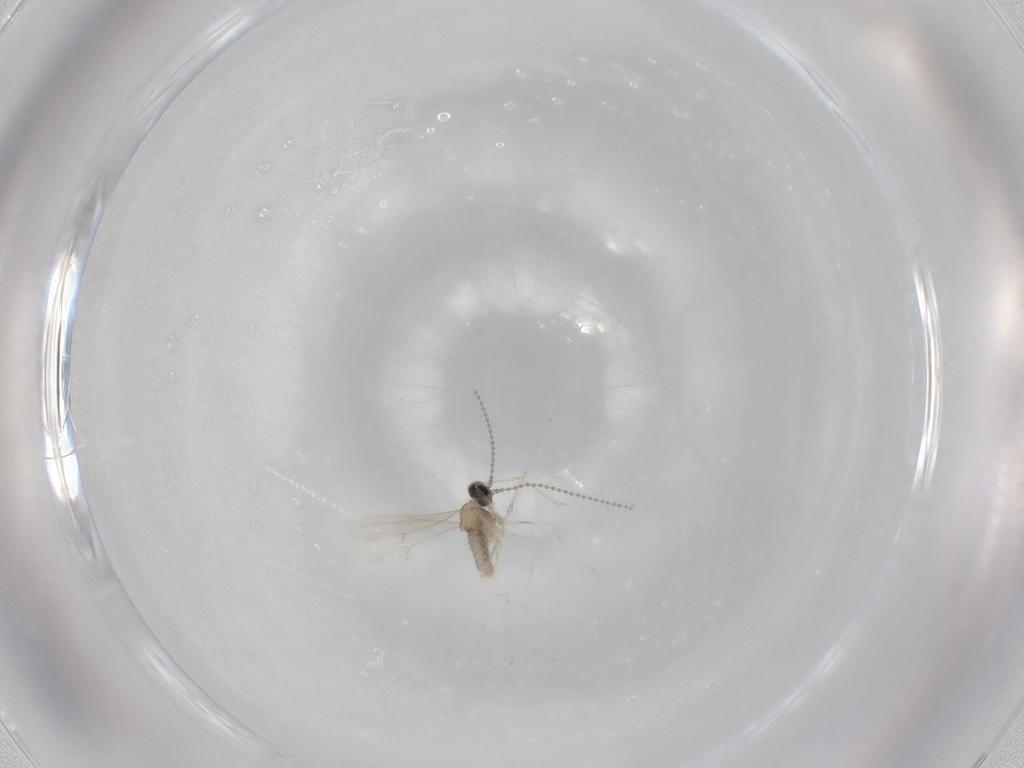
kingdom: Animalia
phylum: Arthropoda
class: Insecta
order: Diptera
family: Cecidomyiidae
